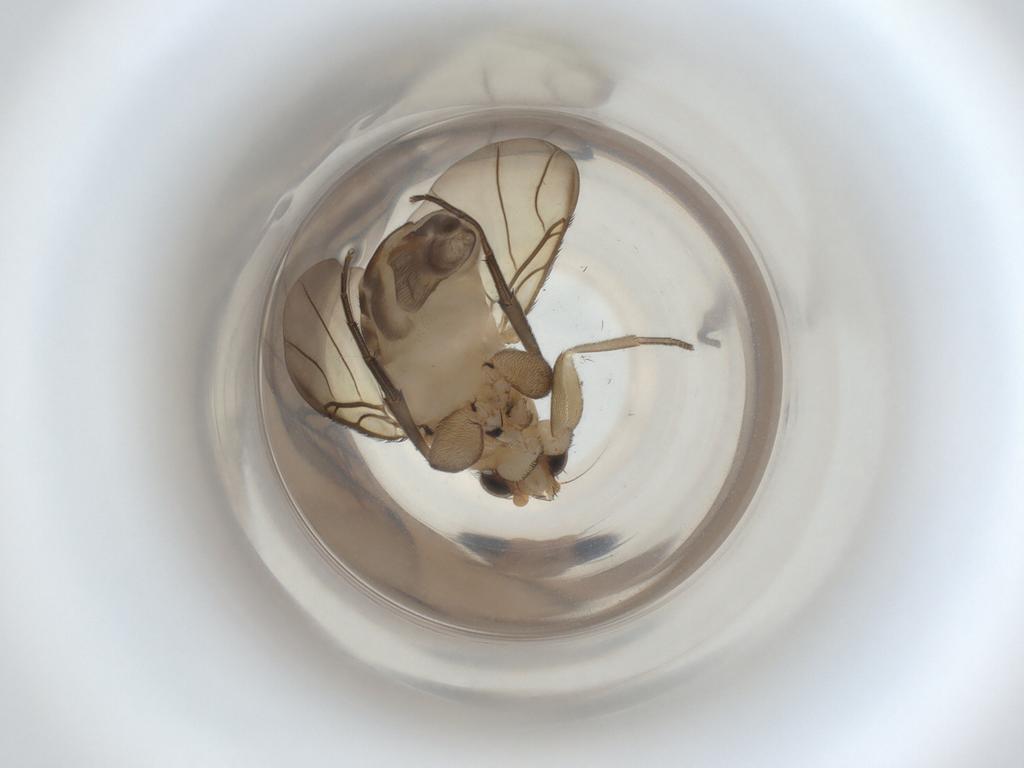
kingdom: Animalia
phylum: Arthropoda
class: Insecta
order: Diptera
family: Phoridae
